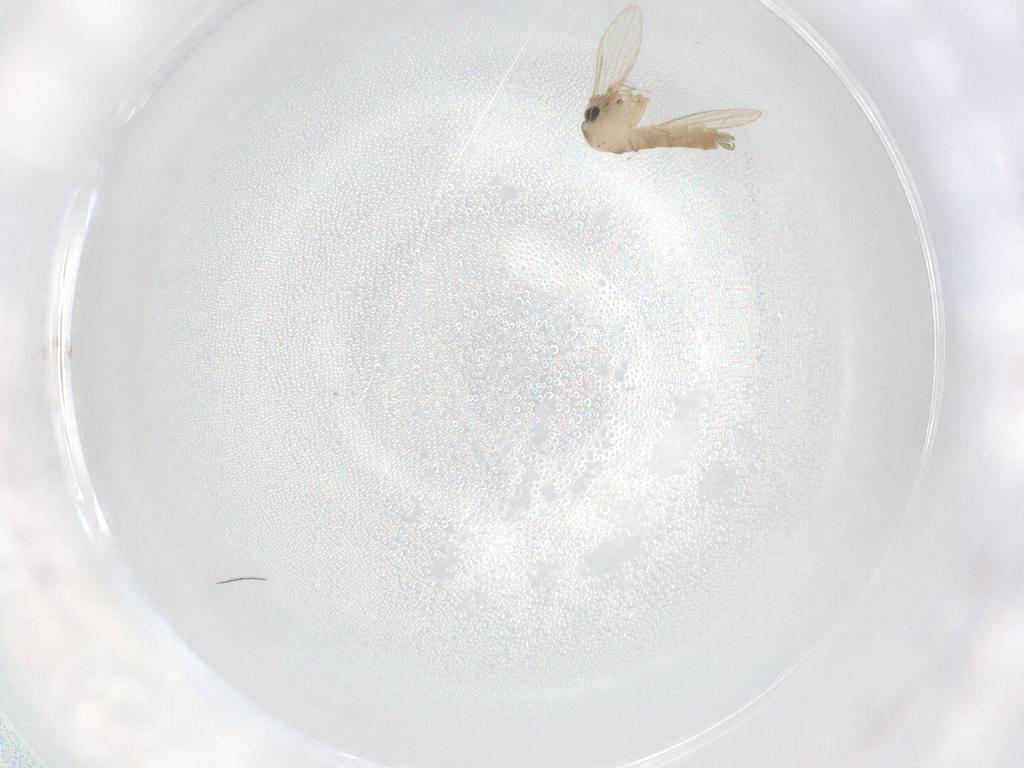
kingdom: Animalia
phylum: Arthropoda
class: Insecta
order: Diptera
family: Psychodidae
